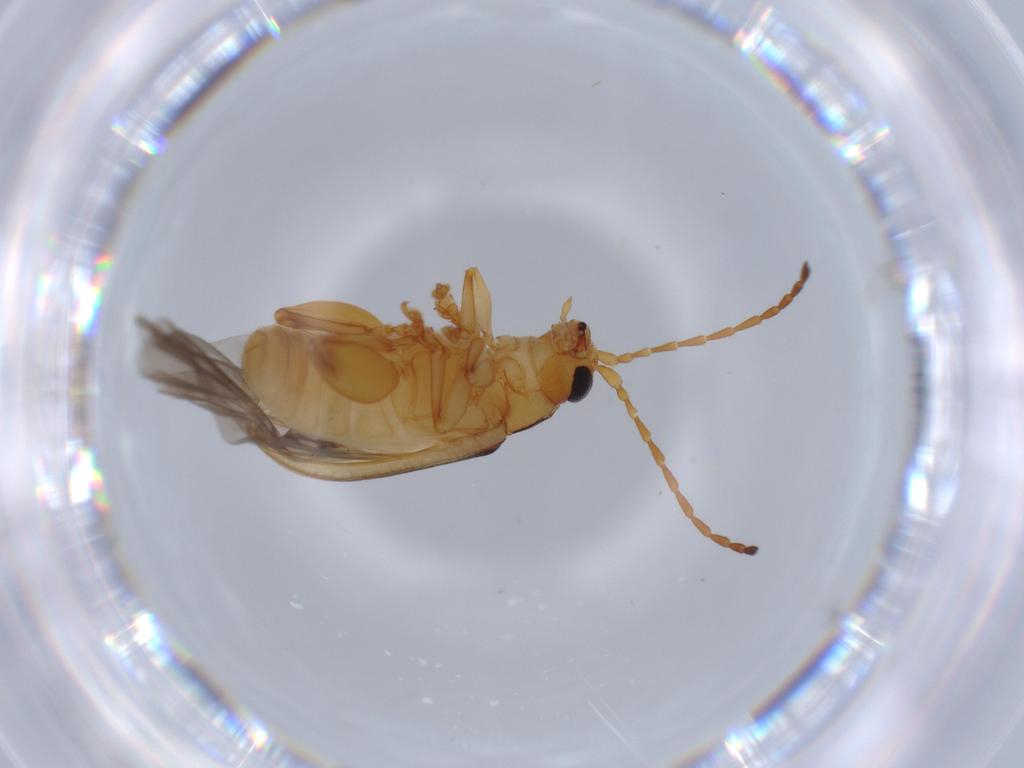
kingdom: Animalia
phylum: Arthropoda
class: Insecta
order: Coleoptera
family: Chrysomelidae
